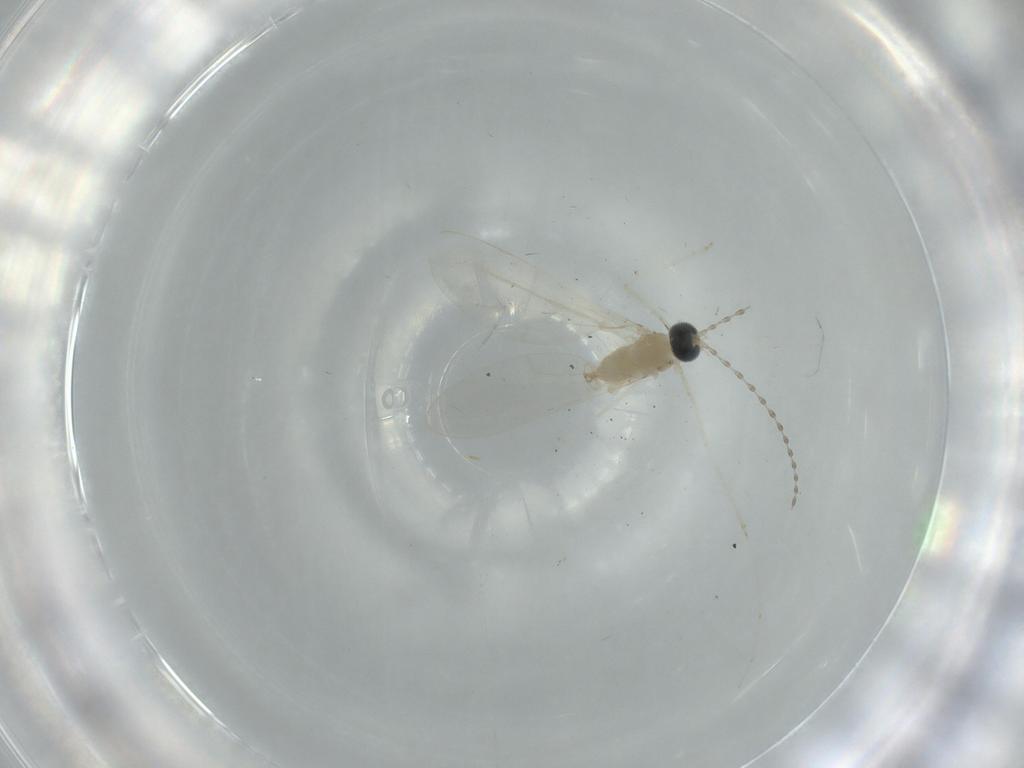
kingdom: Animalia
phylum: Arthropoda
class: Insecta
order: Diptera
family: Cecidomyiidae
